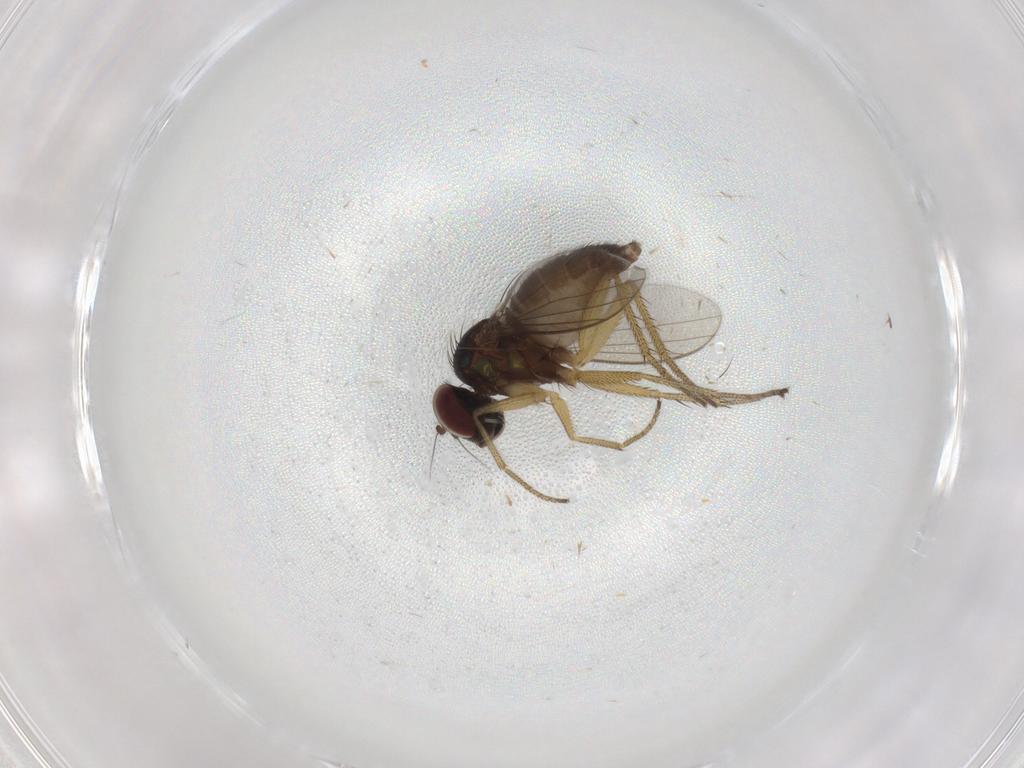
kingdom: Animalia
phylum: Arthropoda
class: Insecta
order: Diptera
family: Dolichopodidae
